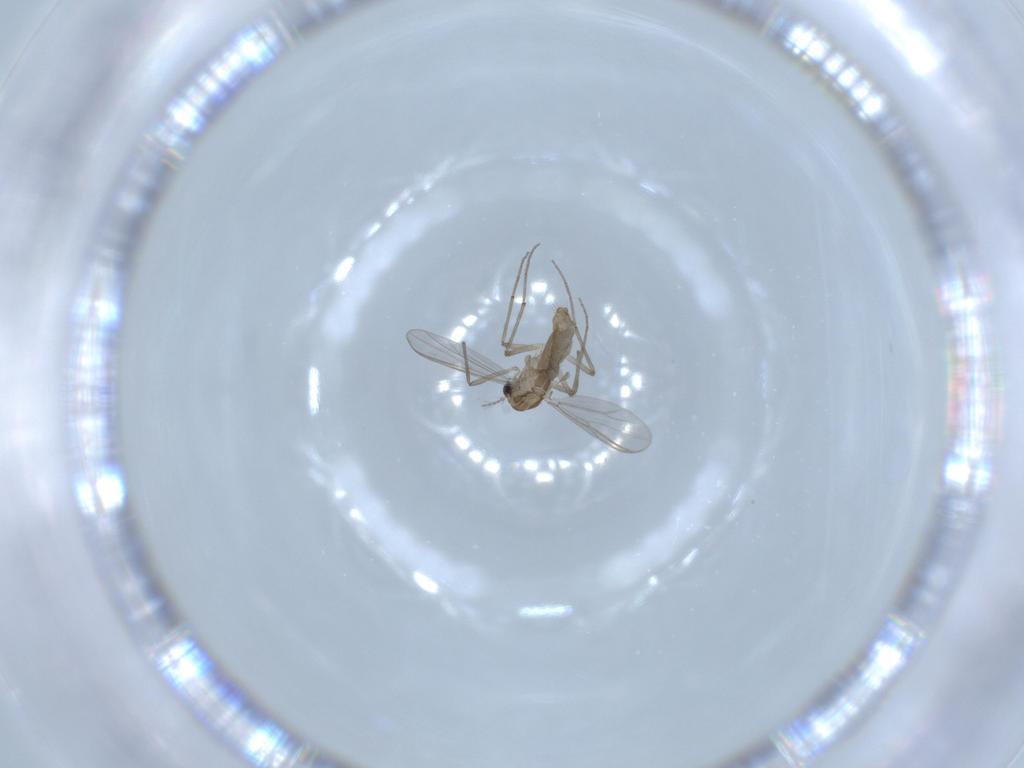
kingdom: Animalia
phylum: Arthropoda
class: Insecta
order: Diptera
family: Chironomidae
